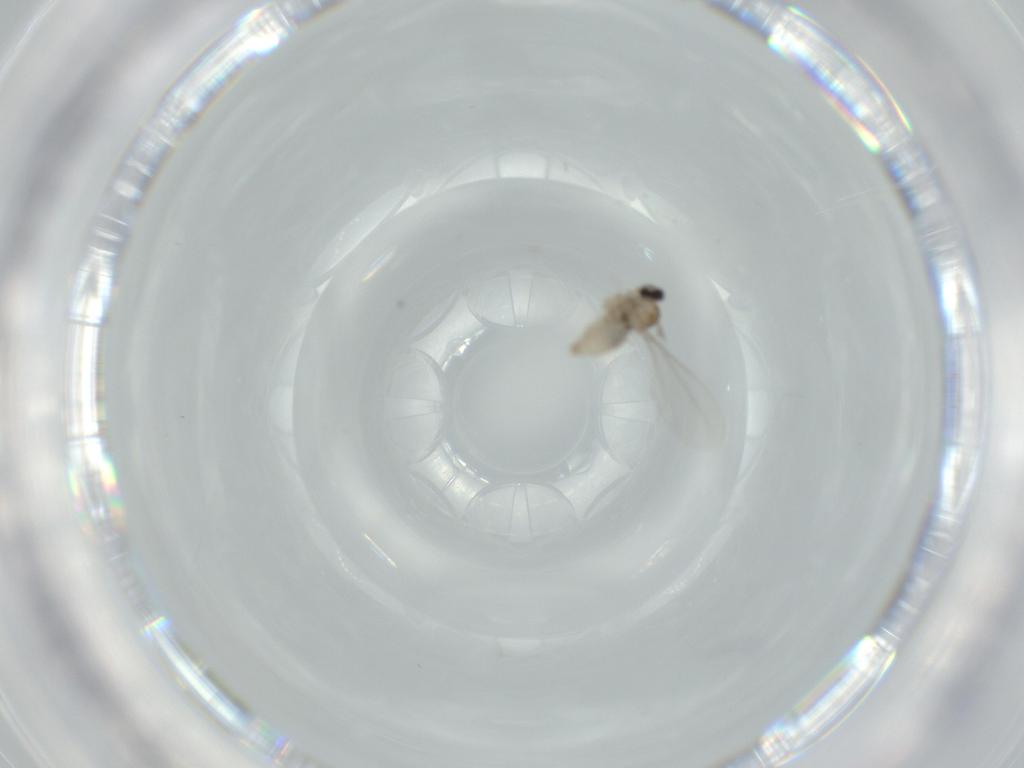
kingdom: Animalia
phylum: Arthropoda
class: Insecta
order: Diptera
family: Cecidomyiidae
